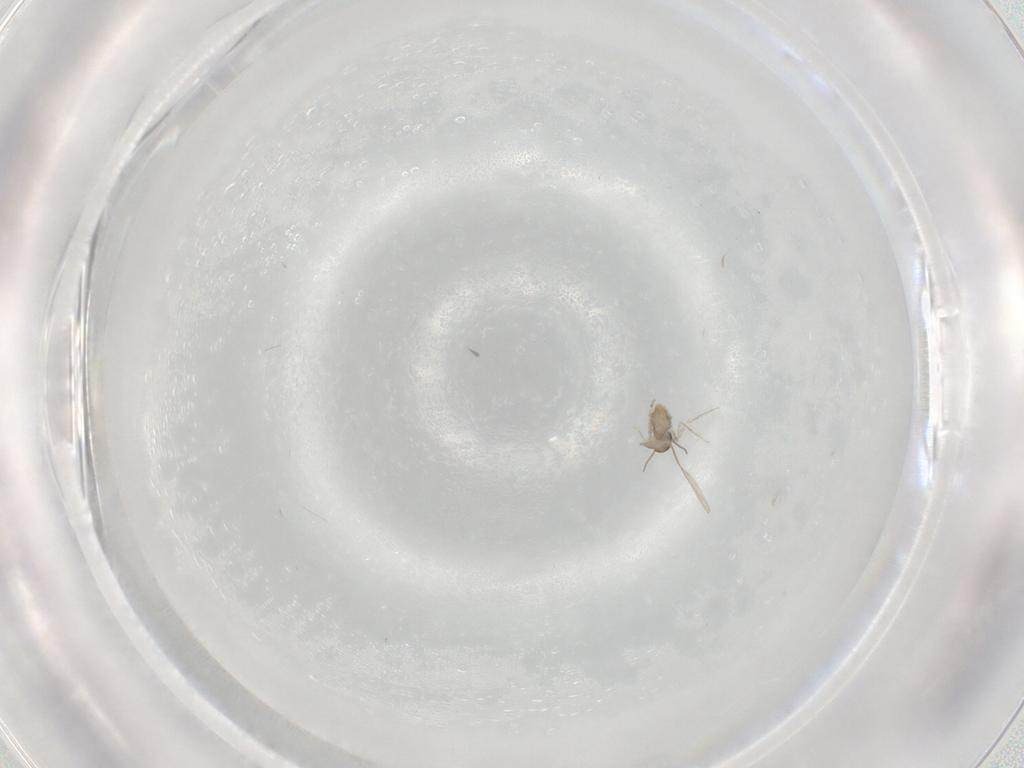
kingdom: Animalia
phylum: Arthropoda
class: Insecta
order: Diptera
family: Cecidomyiidae
